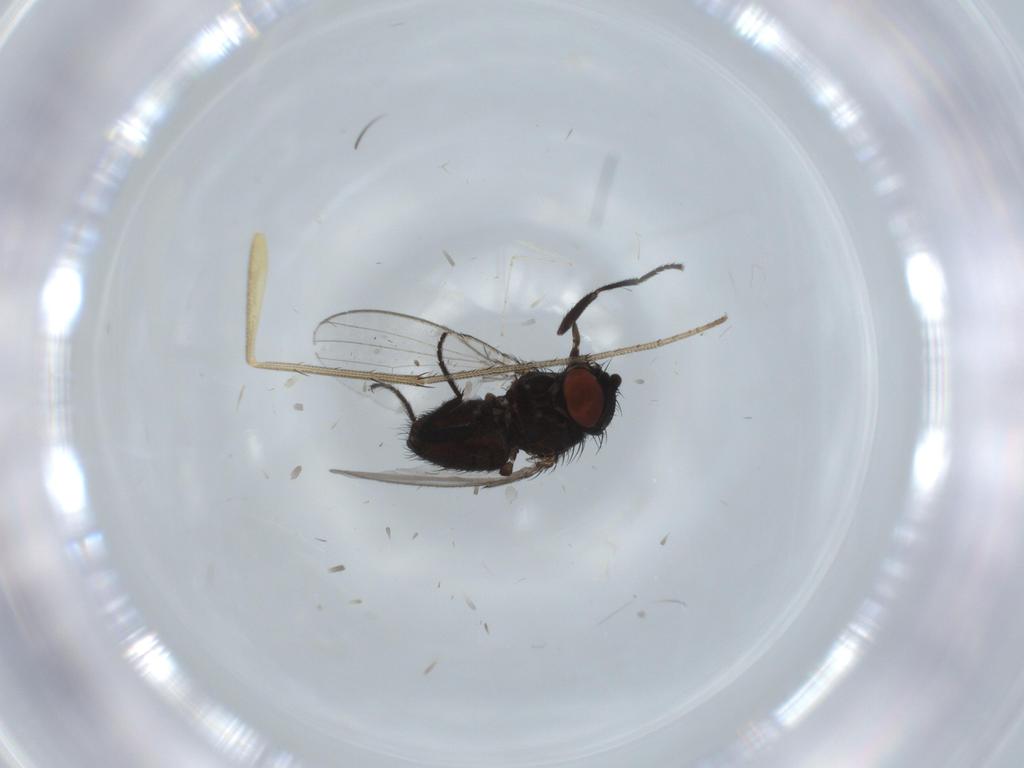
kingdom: Animalia
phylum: Arthropoda
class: Insecta
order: Diptera
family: Milichiidae
